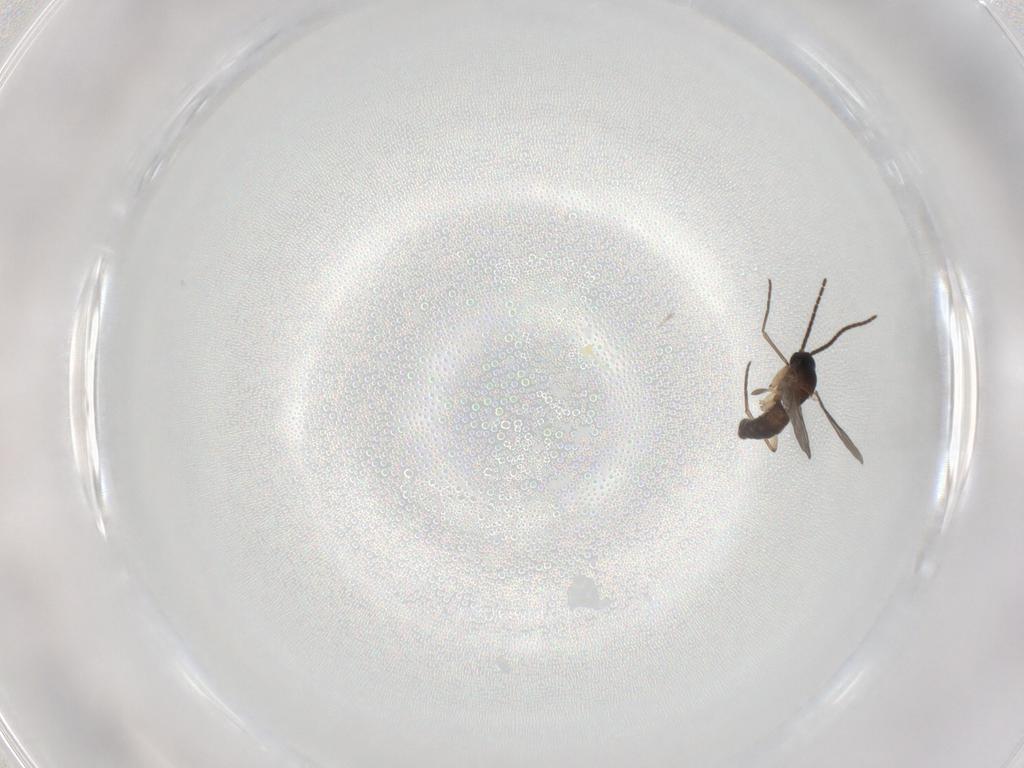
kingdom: Animalia
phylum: Arthropoda
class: Insecta
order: Diptera
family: Sciaridae
